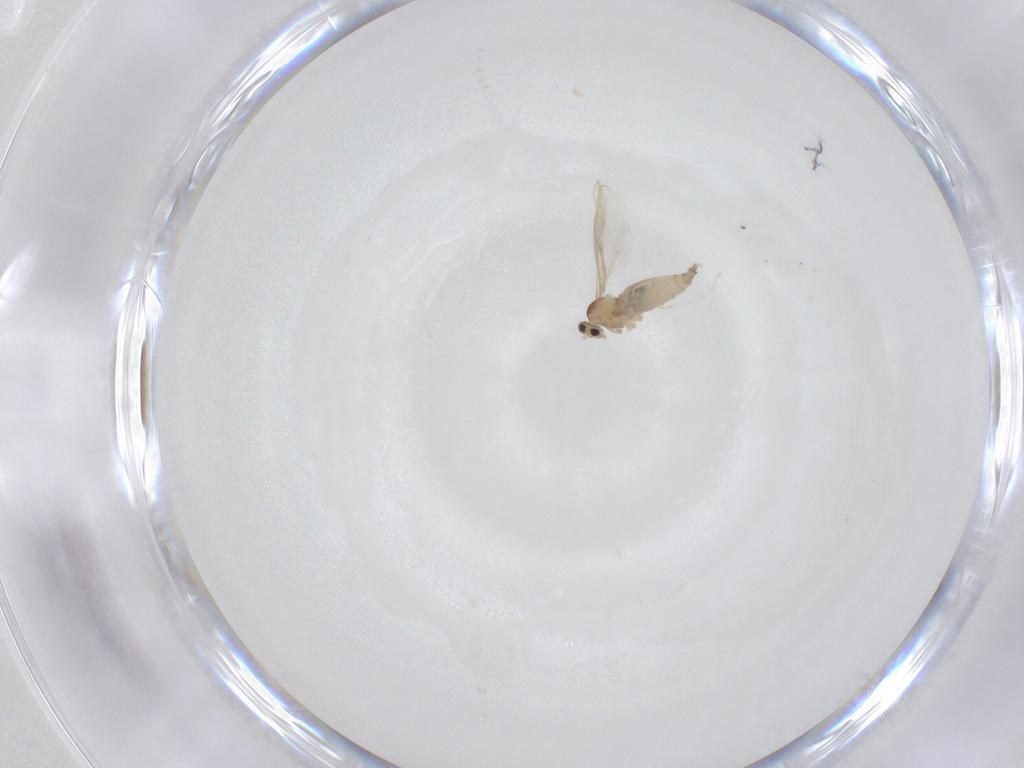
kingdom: Animalia
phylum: Arthropoda
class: Insecta
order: Diptera
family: Cecidomyiidae
